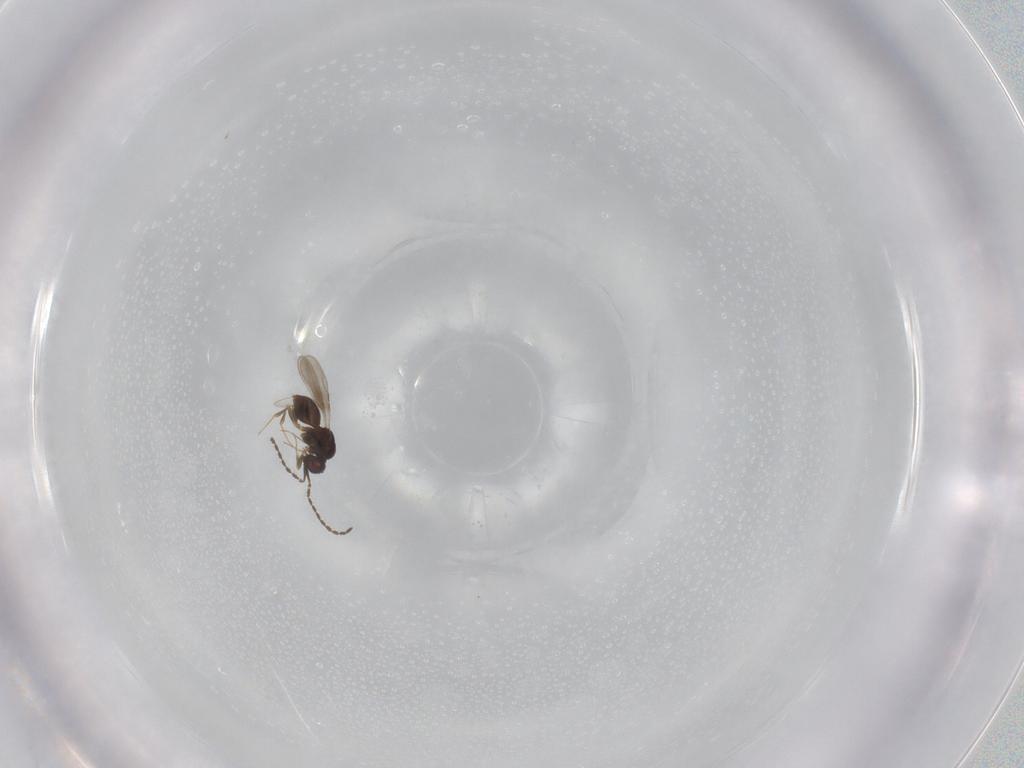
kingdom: Animalia
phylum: Arthropoda
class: Insecta
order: Hymenoptera
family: Ceraphronidae
